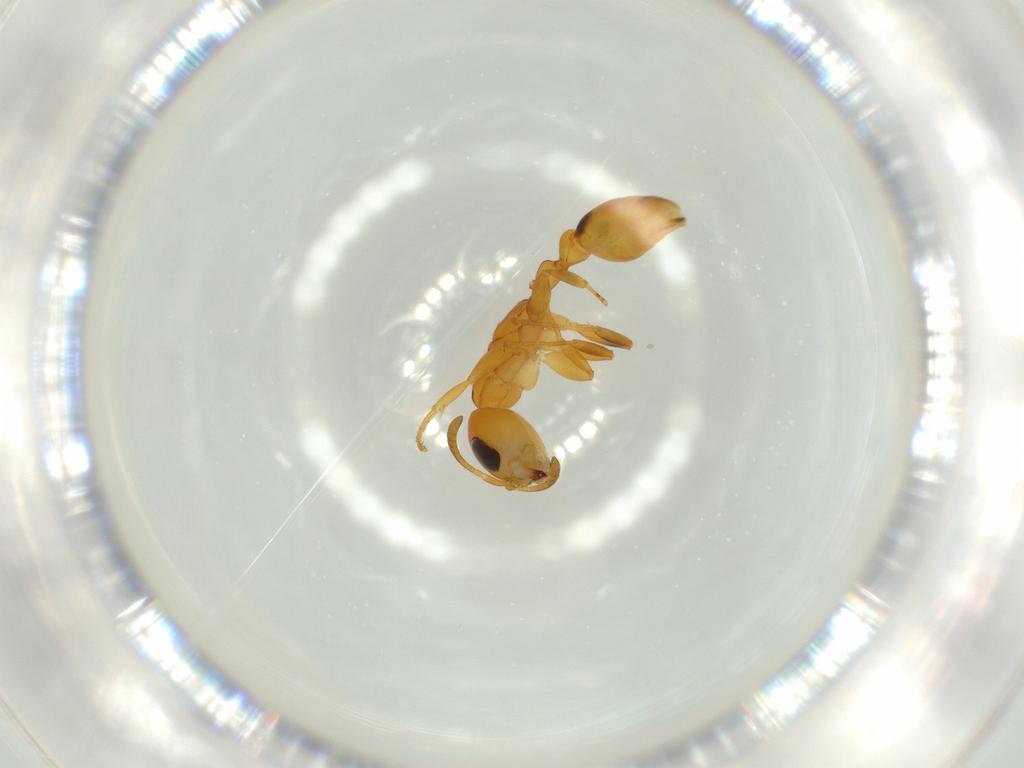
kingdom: Animalia
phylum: Arthropoda
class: Insecta
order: Hymenoptera
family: Formicidae
